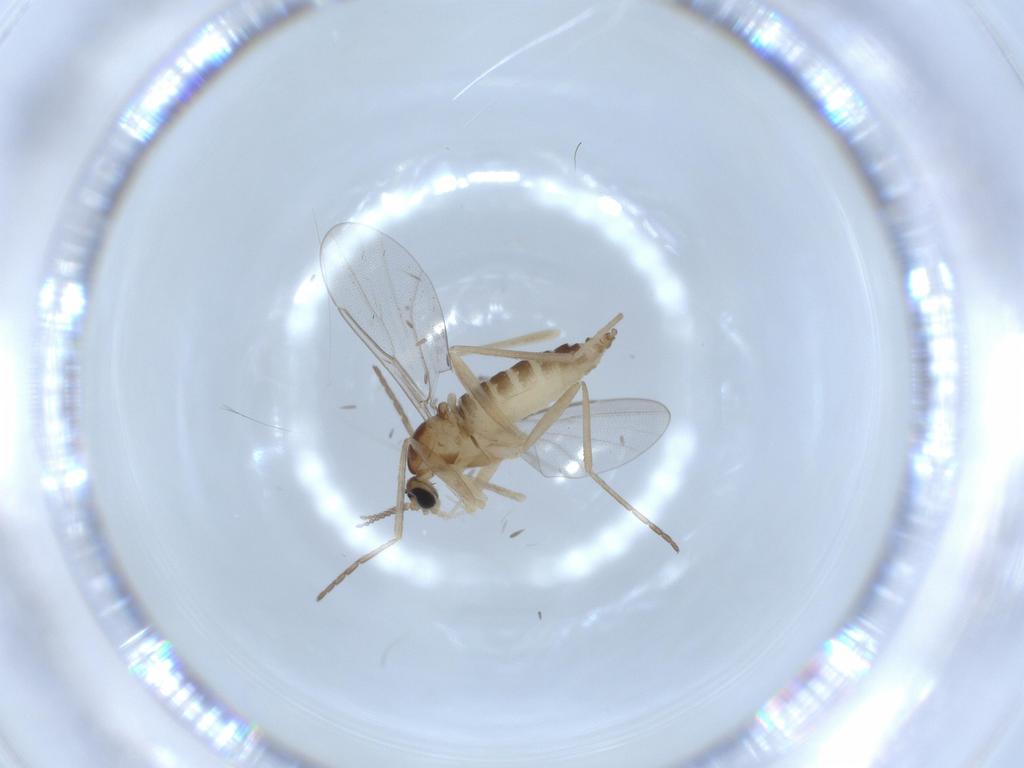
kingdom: Animalia
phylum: Arthropoda
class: Insecta
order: Diptera
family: Cecidomyiidae
